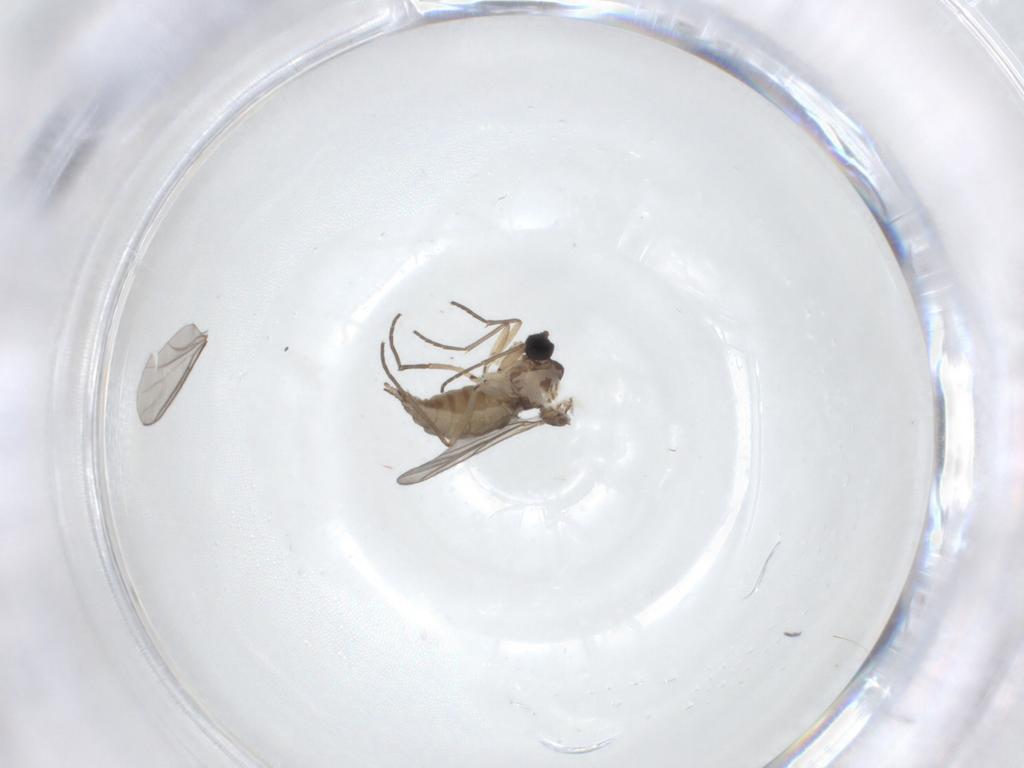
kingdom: Animalia
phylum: Arthropoda
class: Insecta
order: Diptera
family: Sciaridae
